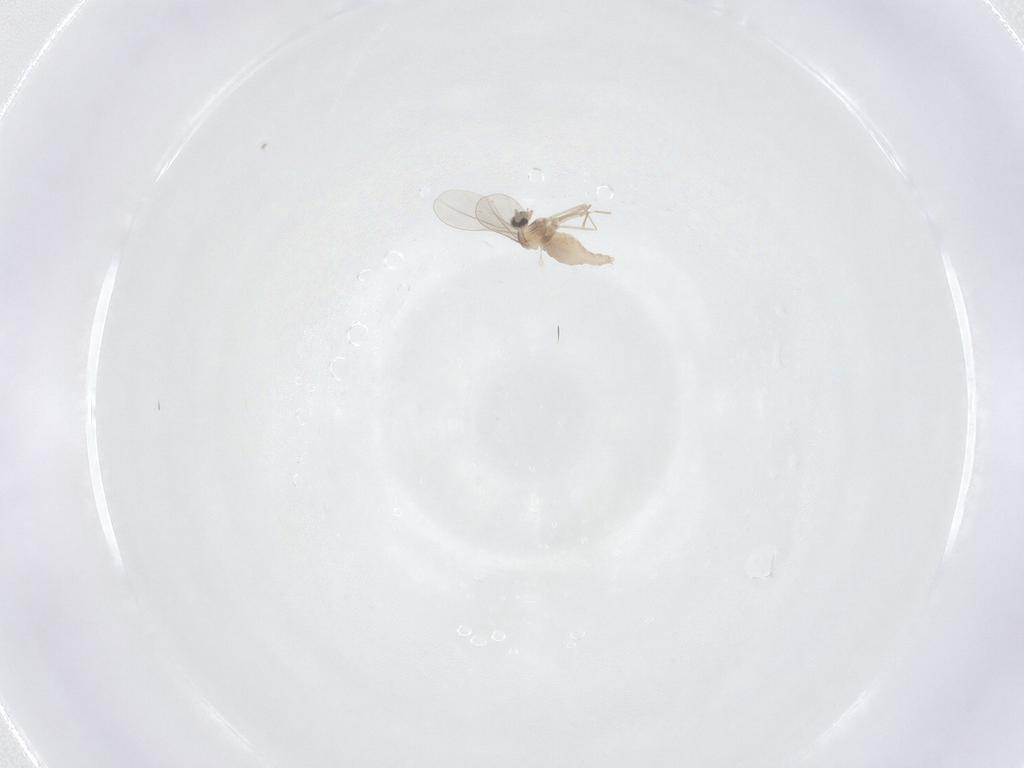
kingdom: Animalia
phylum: Arthropoda
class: Insecta
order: Diptera
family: Cecidomyiidae
